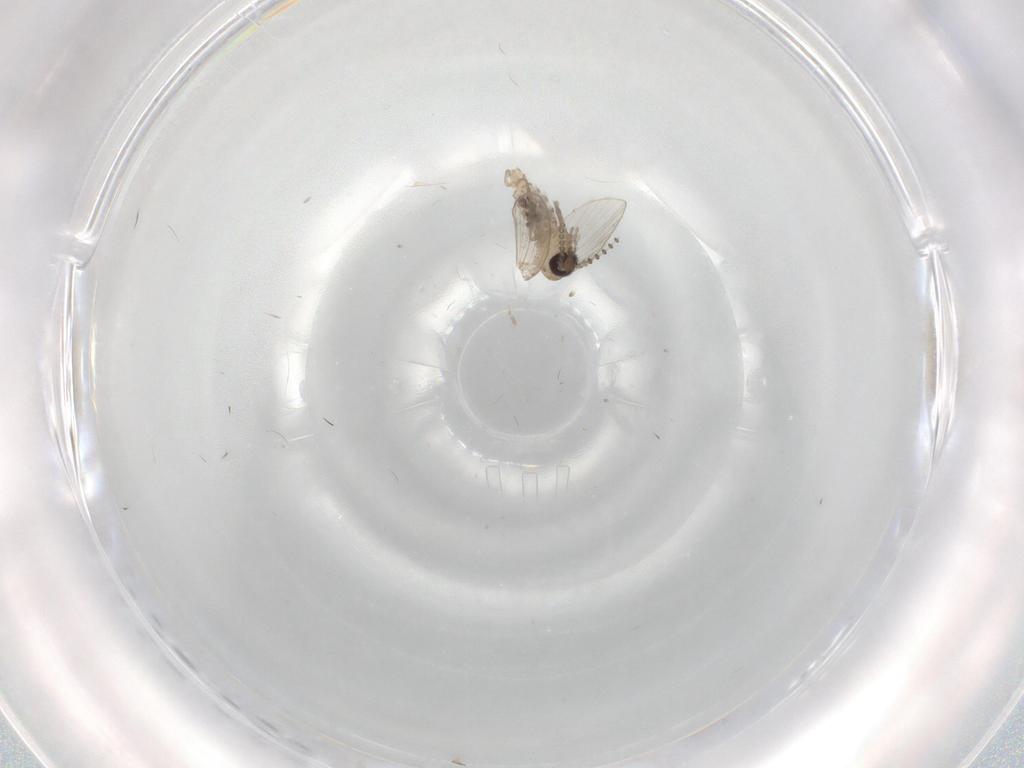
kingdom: Animalia
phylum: Arthropoda
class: Insecta
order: Diptera
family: Psychodidae
